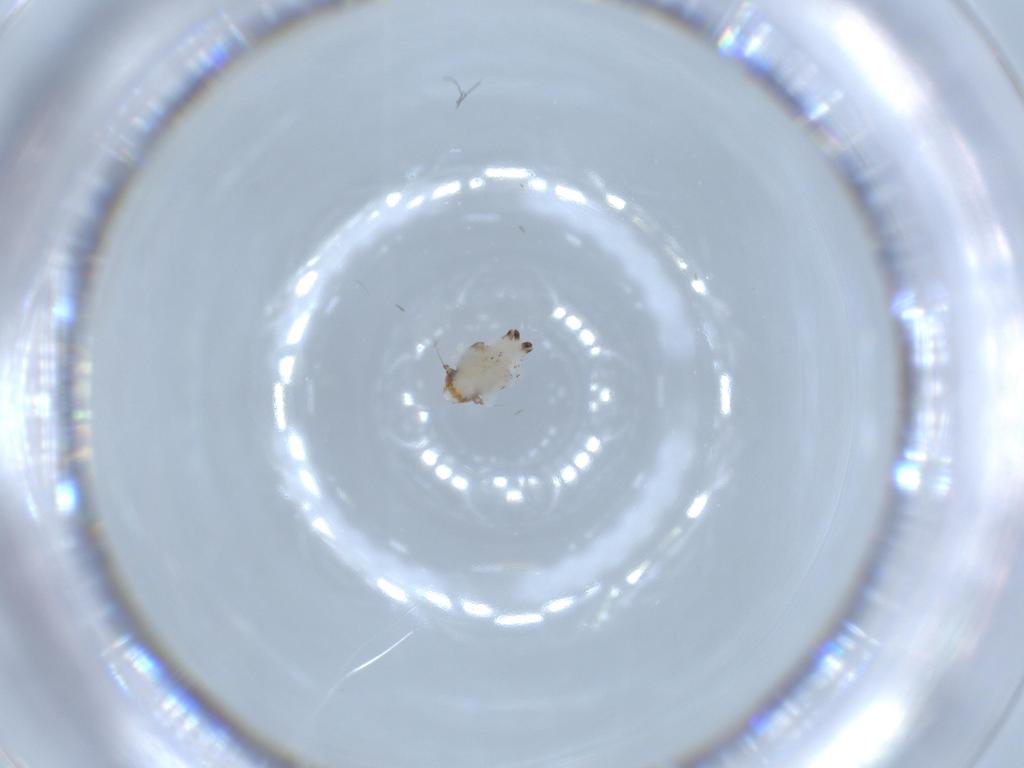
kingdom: Animalia
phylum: Arthropoda
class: Insecta
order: Hemiptera
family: Nogodinidae
